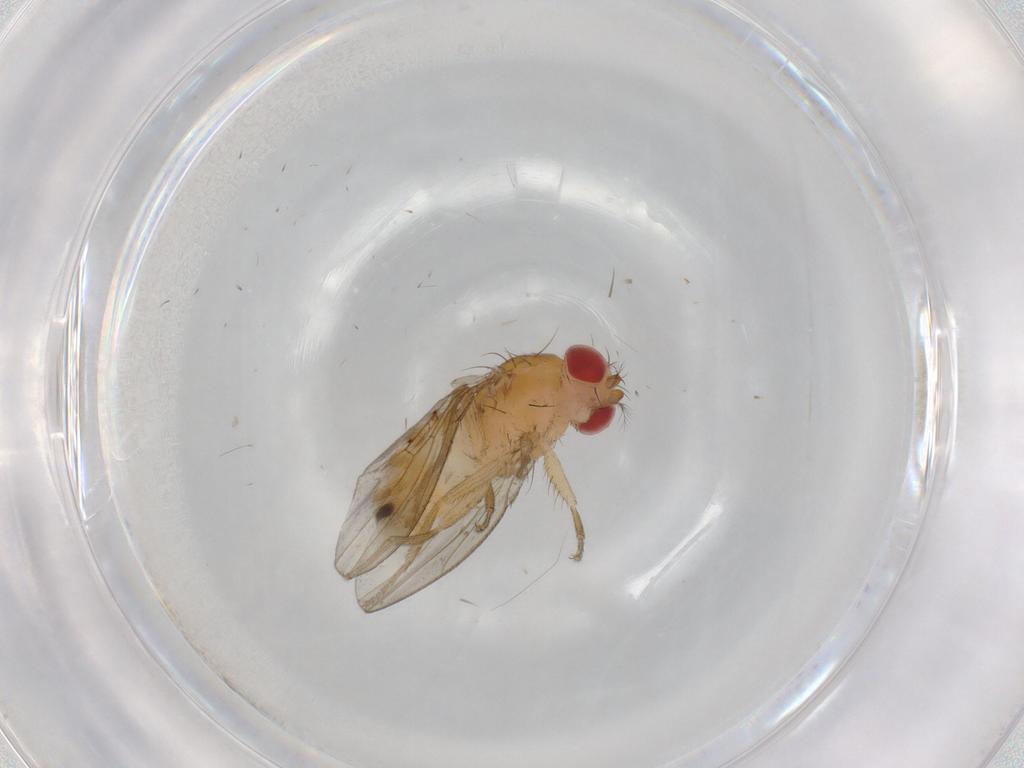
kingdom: Animalia
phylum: Arthropoda
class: Insecta
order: Diptera
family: Drosophilidae
